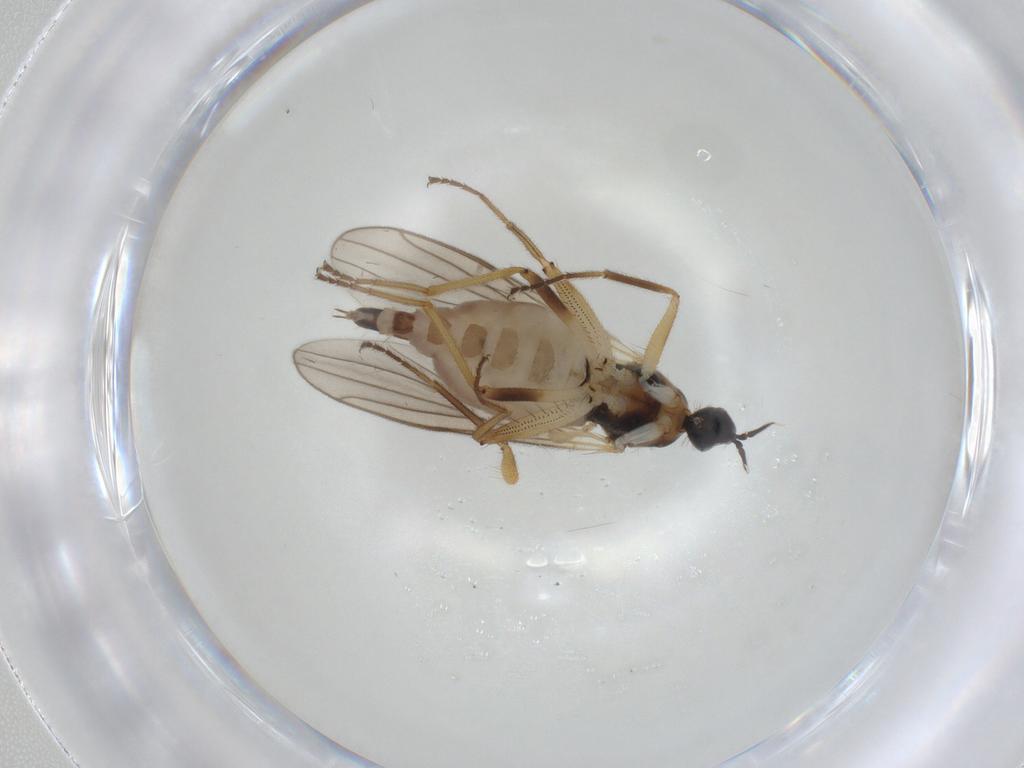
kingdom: Animalia
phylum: Arthropoda
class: Insecta
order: Diptera
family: Hybotidae
